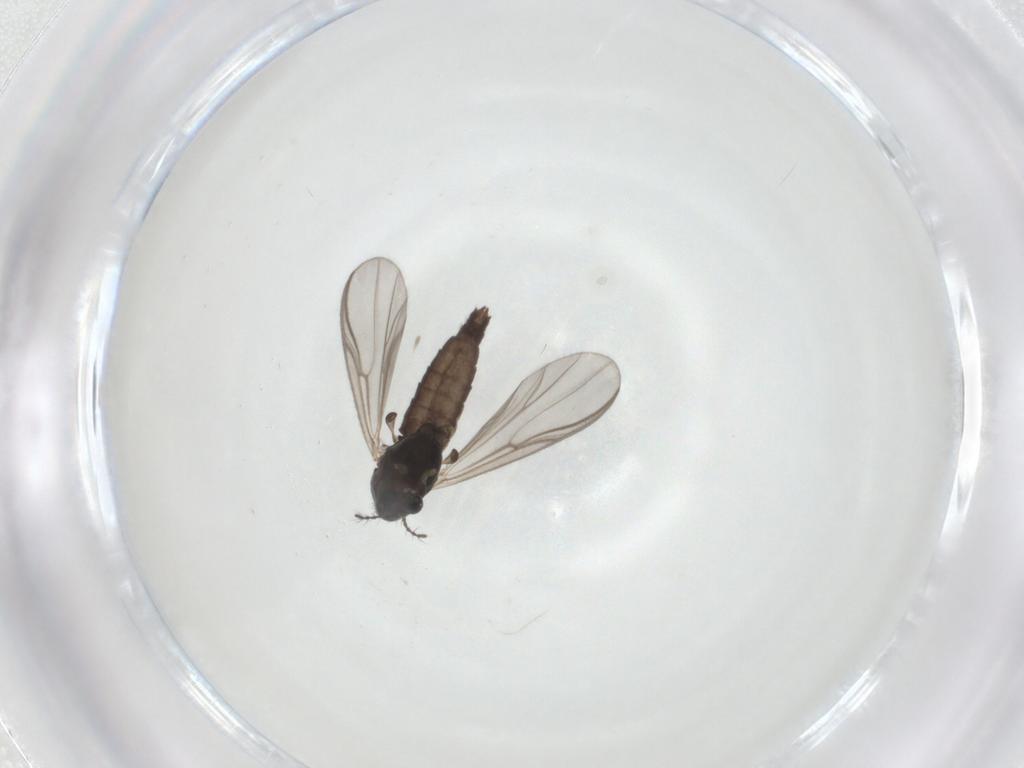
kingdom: Animalia
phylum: Arthropoda
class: Insecta
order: Diptera
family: Chironomidae
